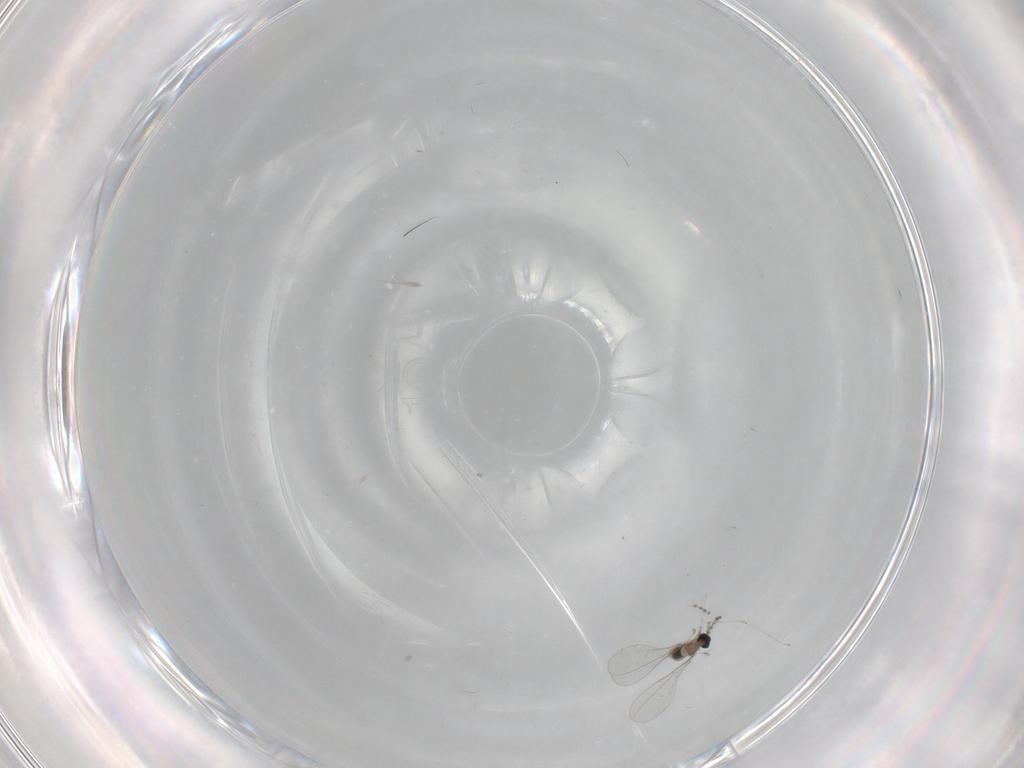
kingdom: Animalia
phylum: Arthropoda
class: Insecta
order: Diptera
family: Cecidomyiidae
